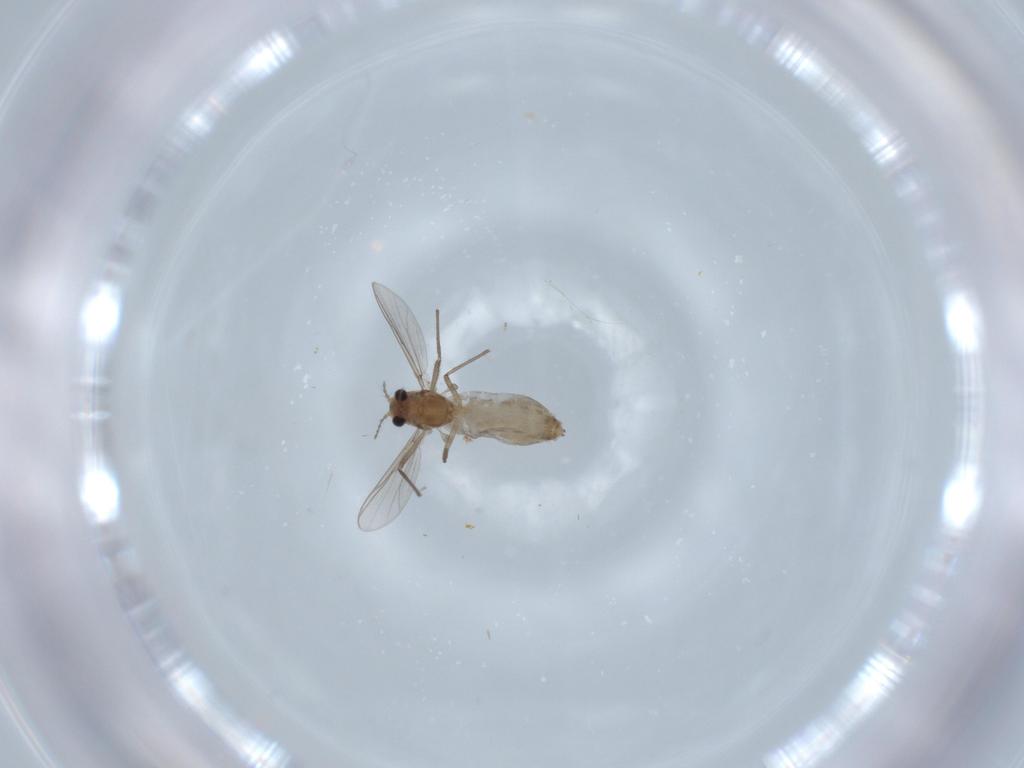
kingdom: Animalia
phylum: Arthropoda
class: Insecta
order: Diptera
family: Chironomidae
